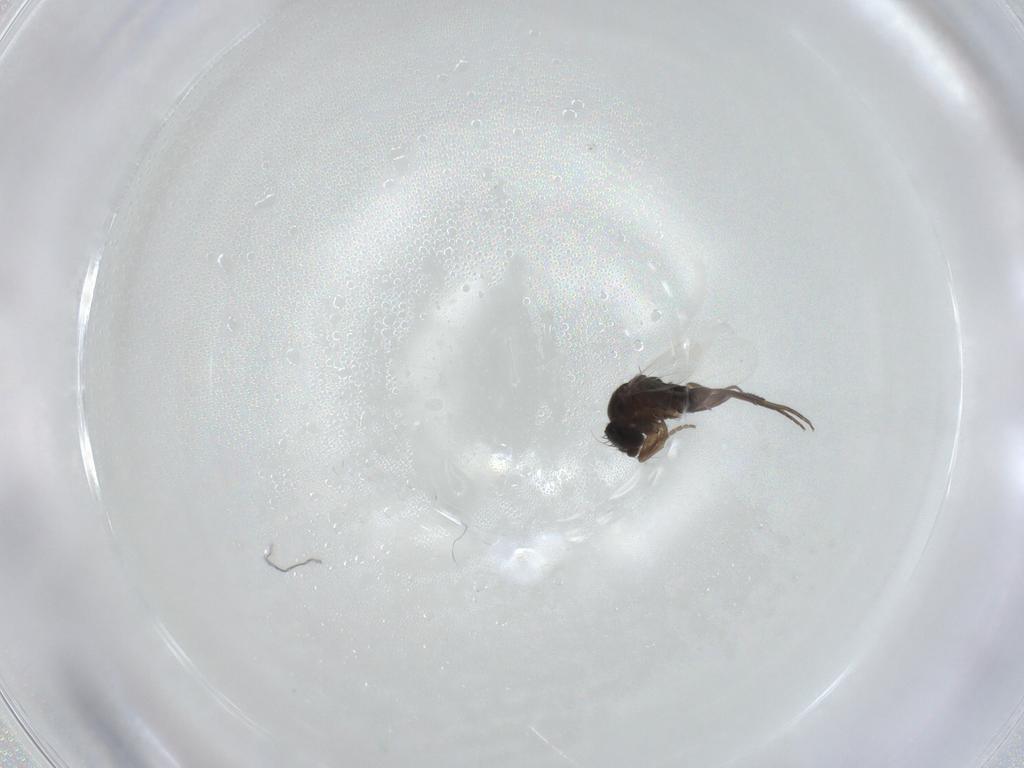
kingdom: Animalia
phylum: Arthropoda
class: Insecta
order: Diptera
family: Phoridae
